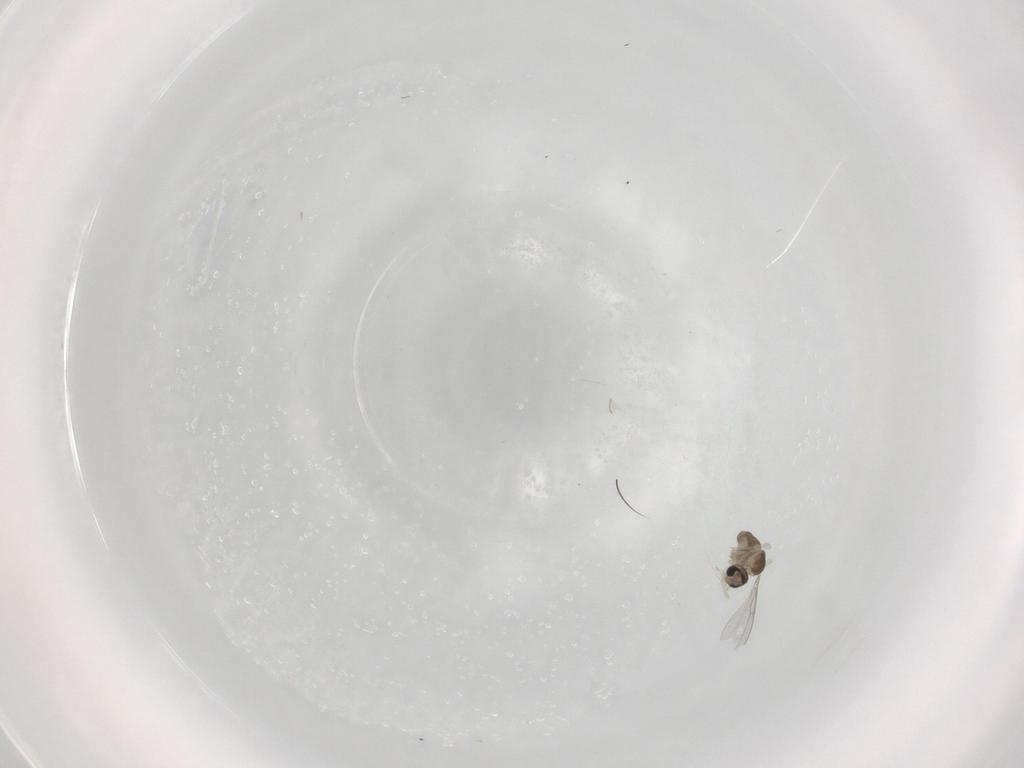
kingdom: Animalia
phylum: Arthropoda
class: Insecta
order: Diptera
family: Cecidomyiidae
